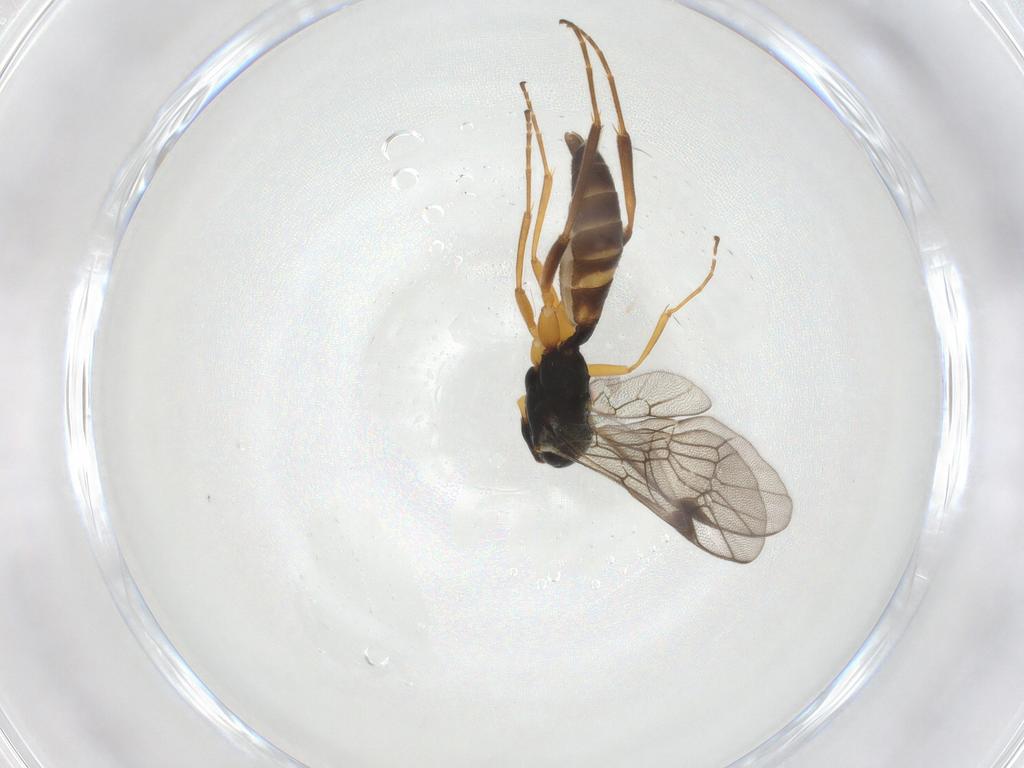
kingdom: Animalia
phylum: Arthropoda
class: Insecta
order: Hymenoptera
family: Ichneumonidae
